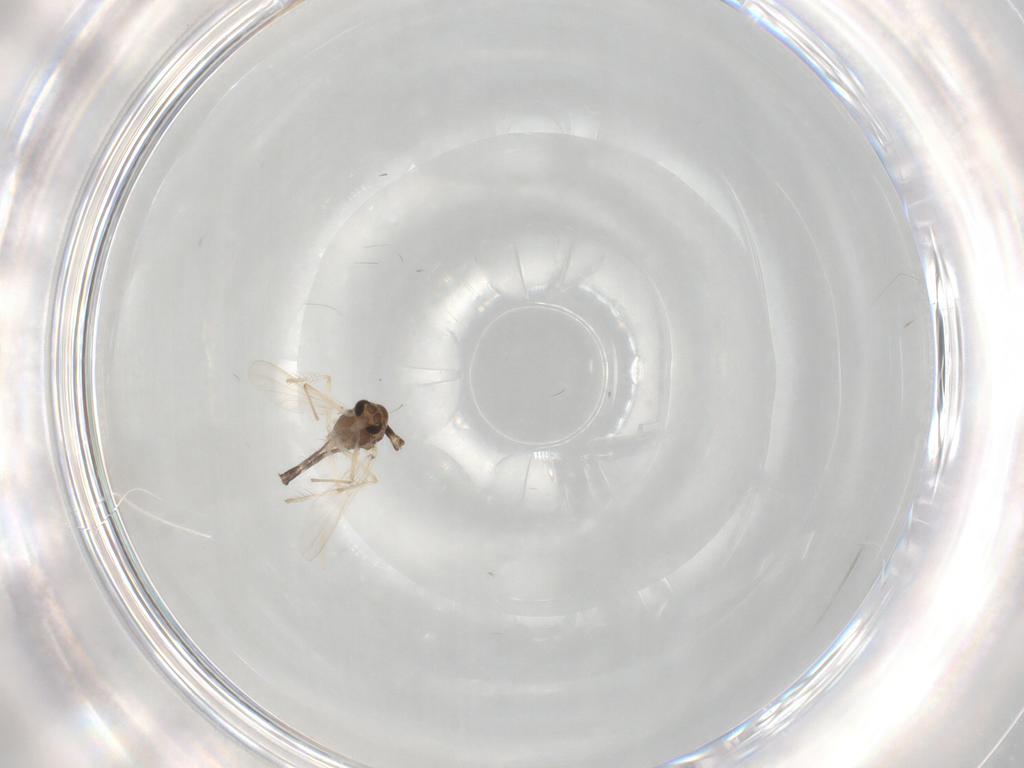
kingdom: Animalia
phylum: Arthropoda
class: Insecta
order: Diptera
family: Chironomidae
